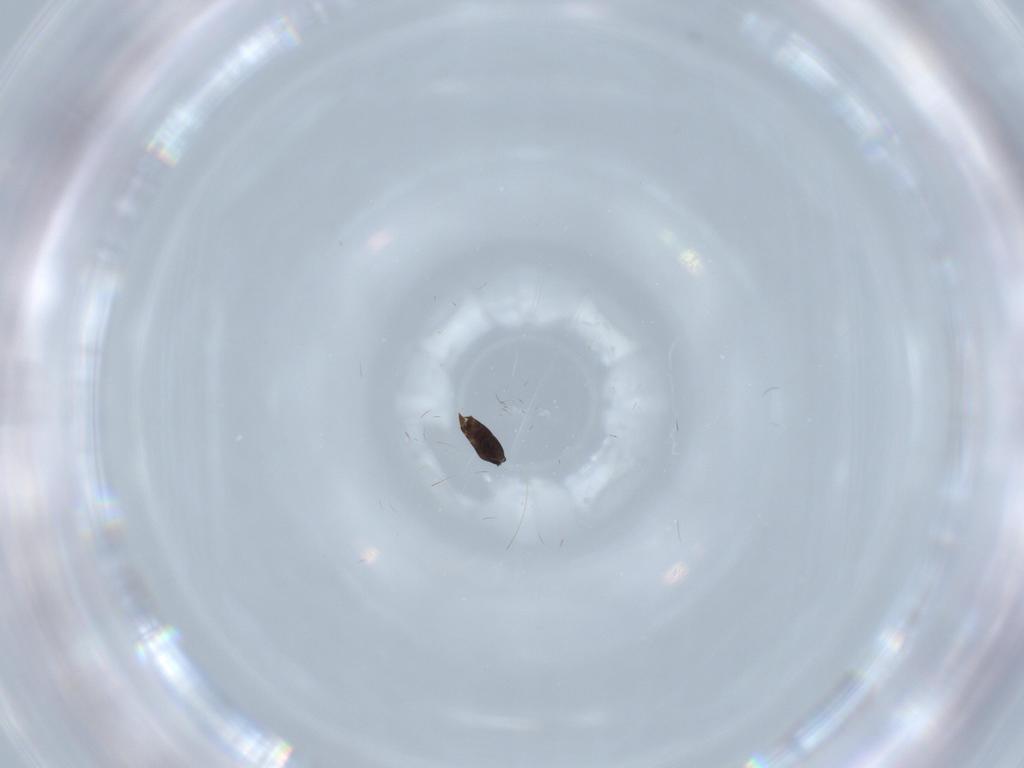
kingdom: Animalia
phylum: Arthropoda
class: Insecta
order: Hymenoptera
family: Ceraphronidae
